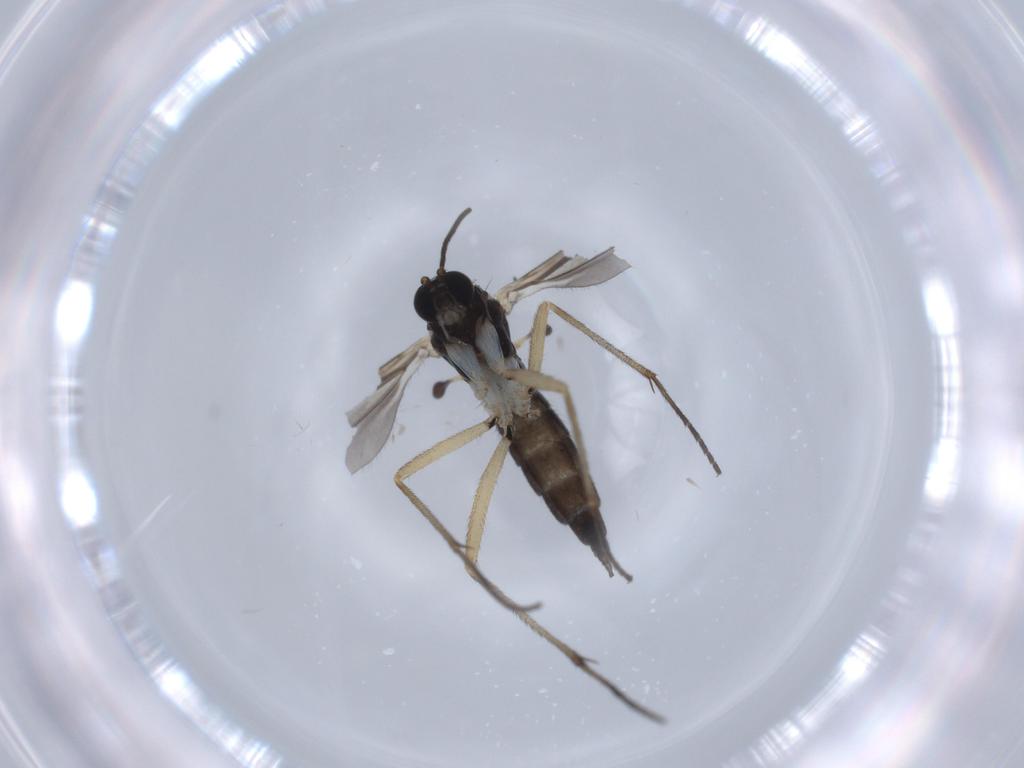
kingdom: Animalia
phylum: Arthropoda
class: Insecta
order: Diptera
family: Sciaridae
